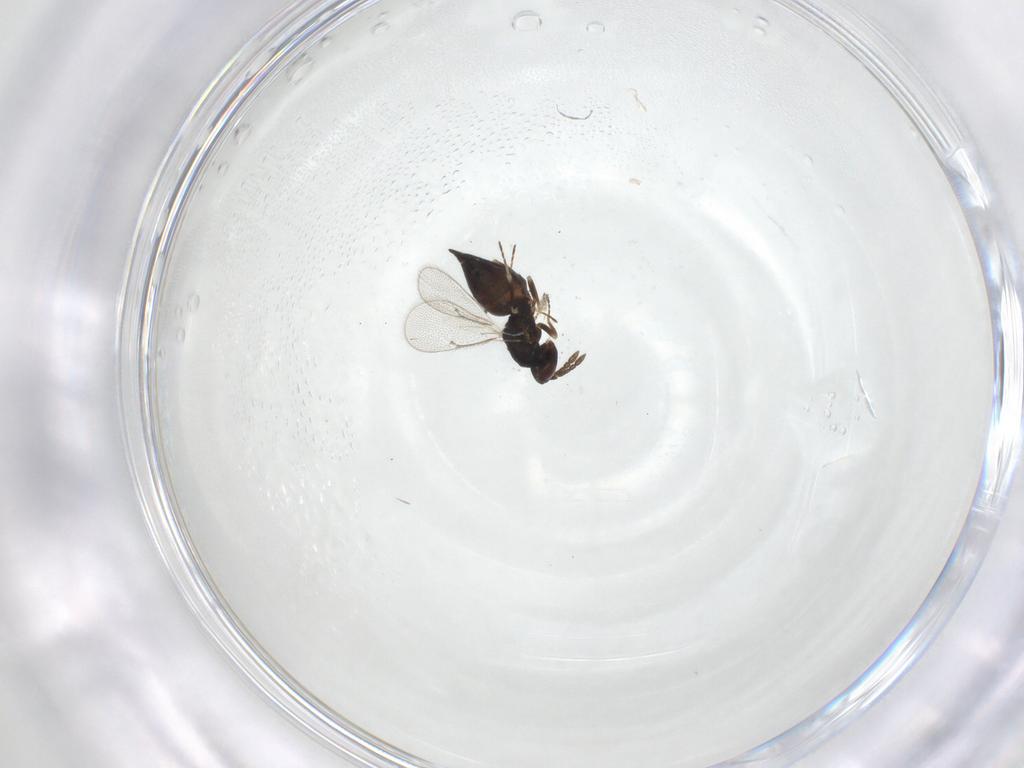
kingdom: Animalia
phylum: Arthropoda
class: Insecta
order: Hymenoptera
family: Eulophidae
